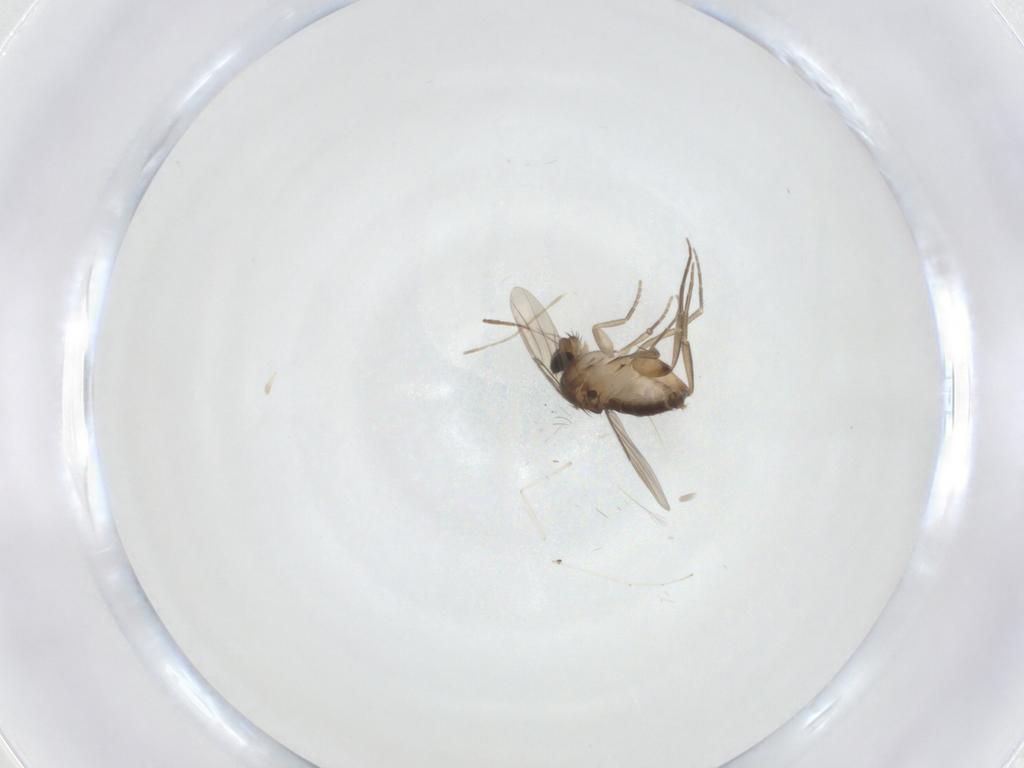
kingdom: Animalia
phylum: Arthropoda
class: Insecta
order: Diptera
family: Phoridae
